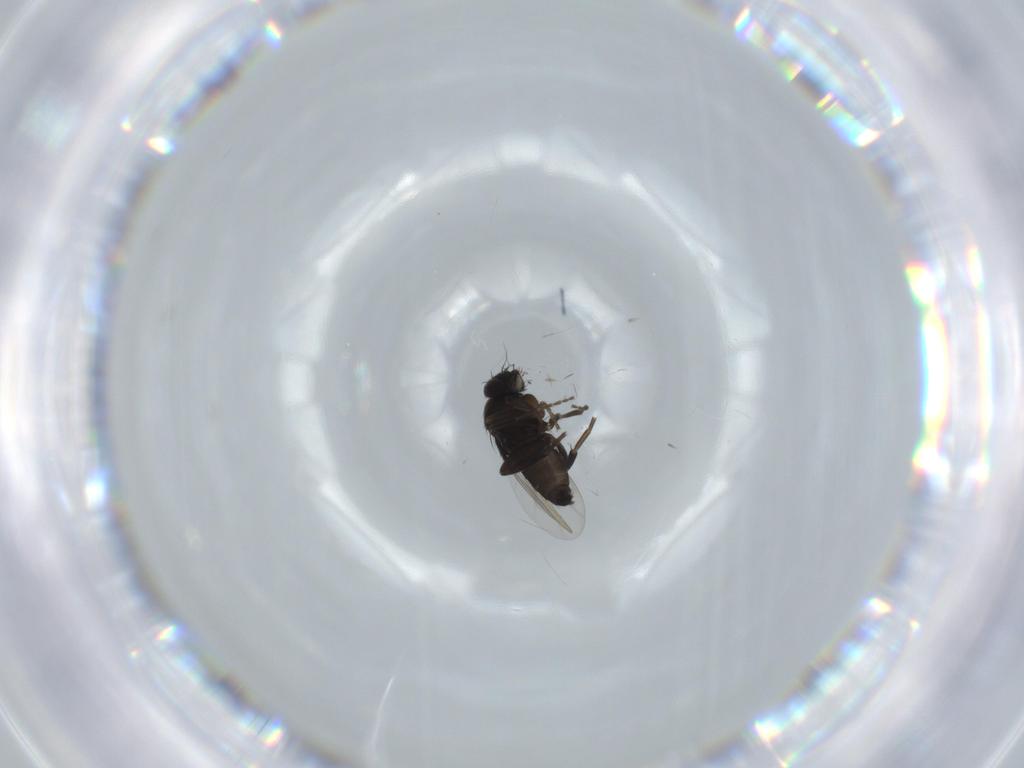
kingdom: Animalia
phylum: Arthropoda
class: Insecta
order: Diptera
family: Phoridae
